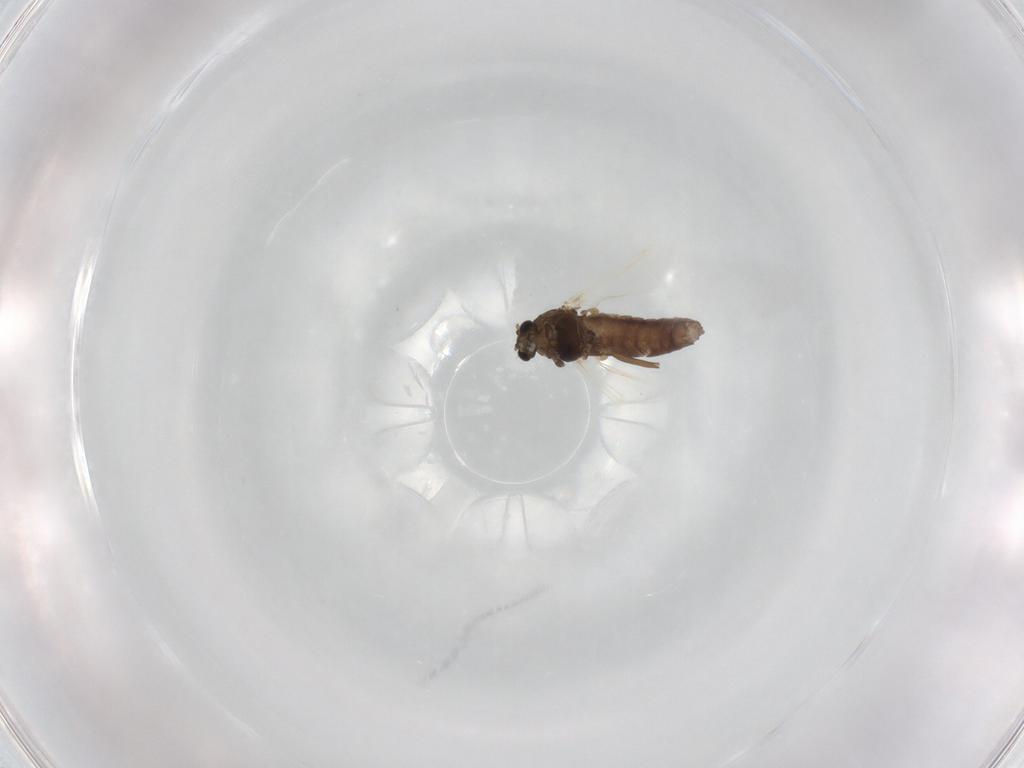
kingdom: Animalia
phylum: Arthropoda
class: Insecta
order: Diptera
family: Chironomidae
